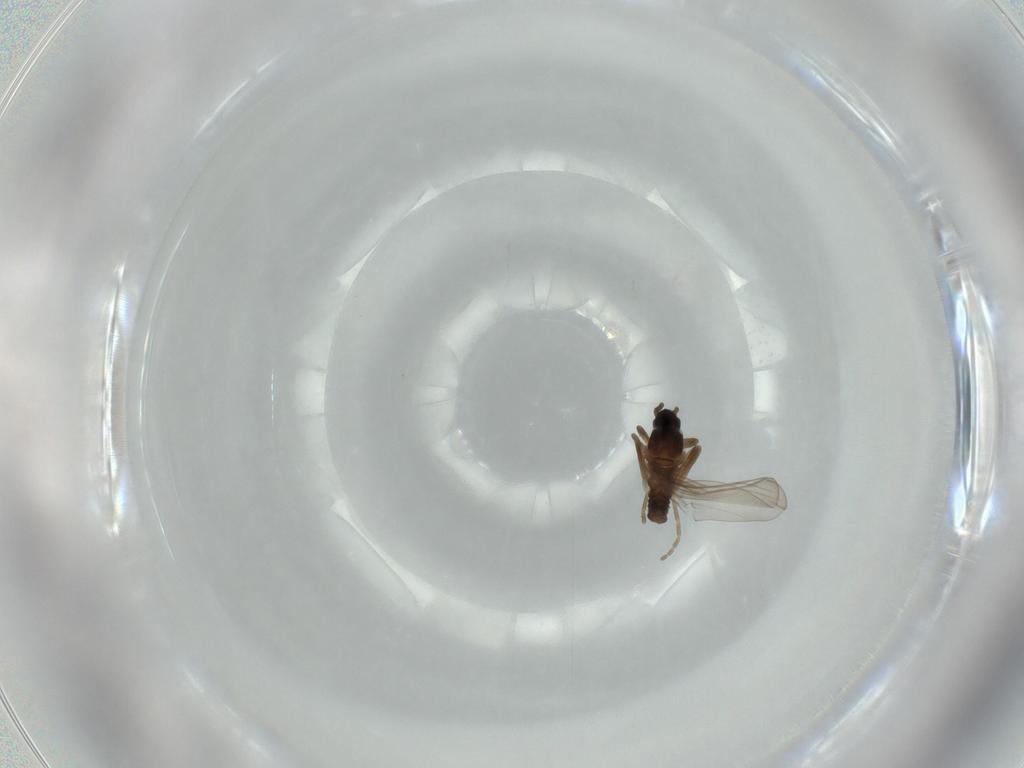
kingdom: Animalia
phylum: Arthropoda
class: Insecta
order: Diptera
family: Cecidomyiidae
